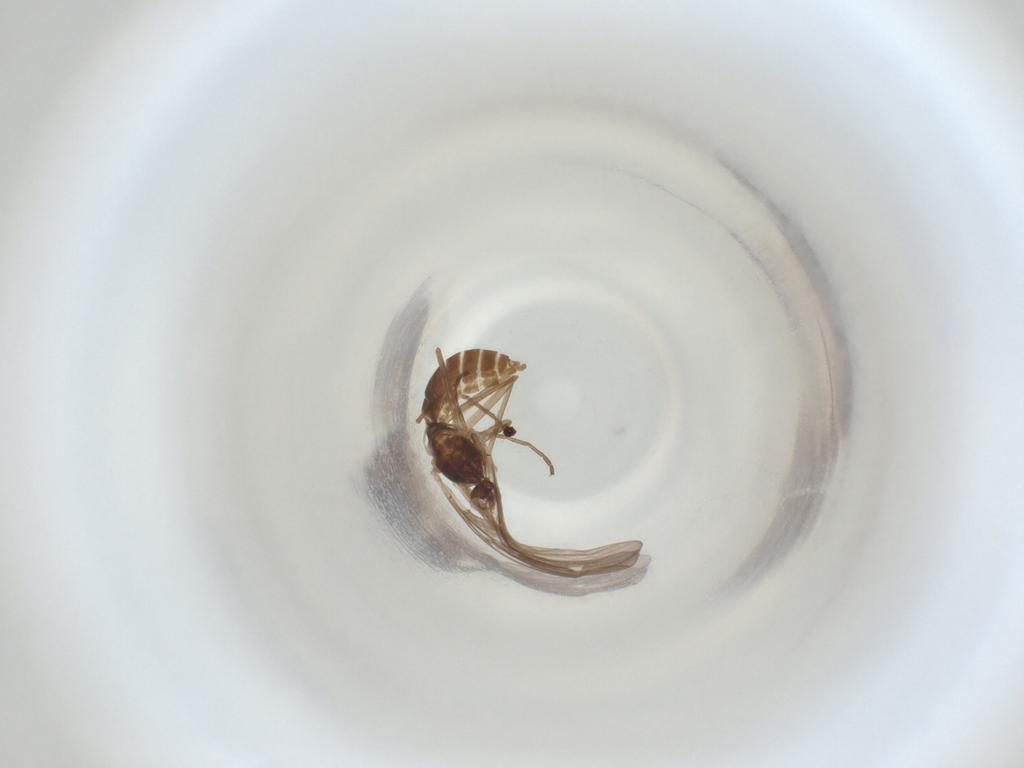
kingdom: Animalia
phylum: Arthropoda
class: Insecta
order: Diptera
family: Cecidomyiidae
